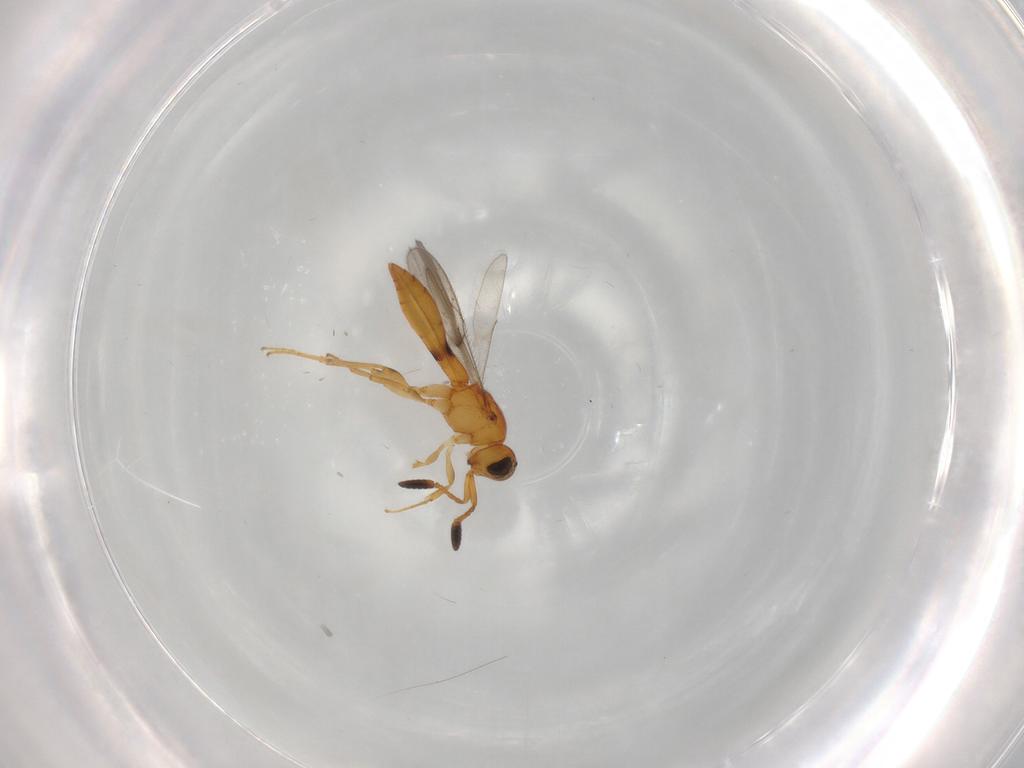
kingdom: Animalia
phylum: Arthropoda
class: Insecta
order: Hymenoptera
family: Scelionidae
